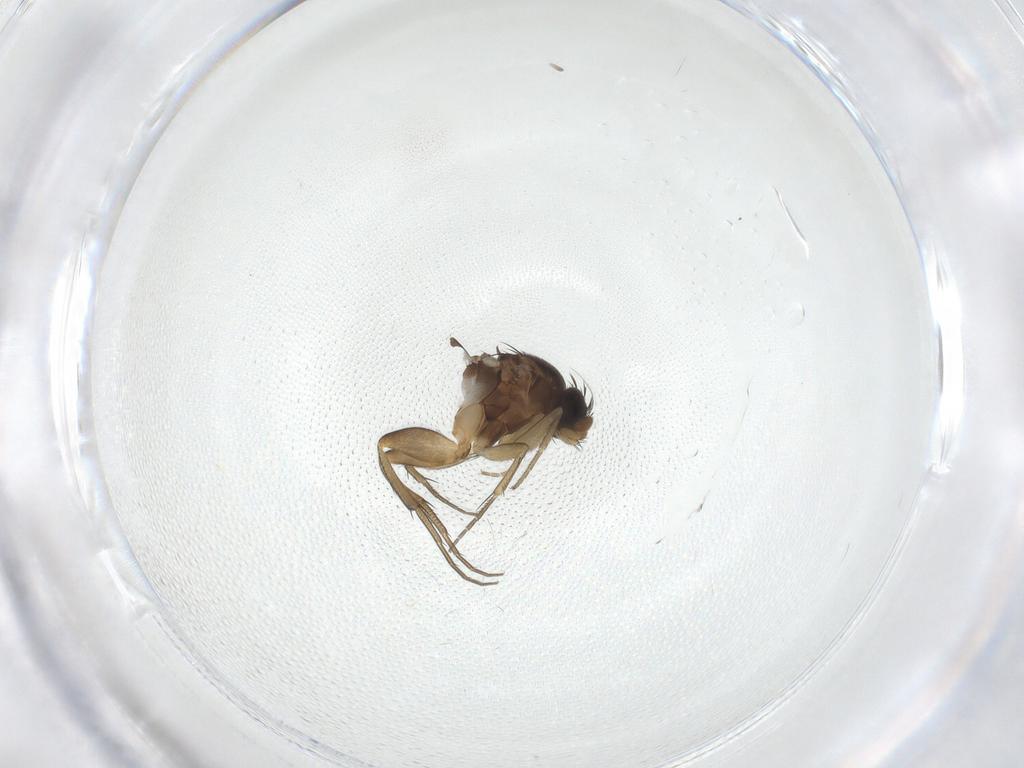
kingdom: Animalia
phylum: Arthropoda
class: Insecta
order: Diptera
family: Phoridae
